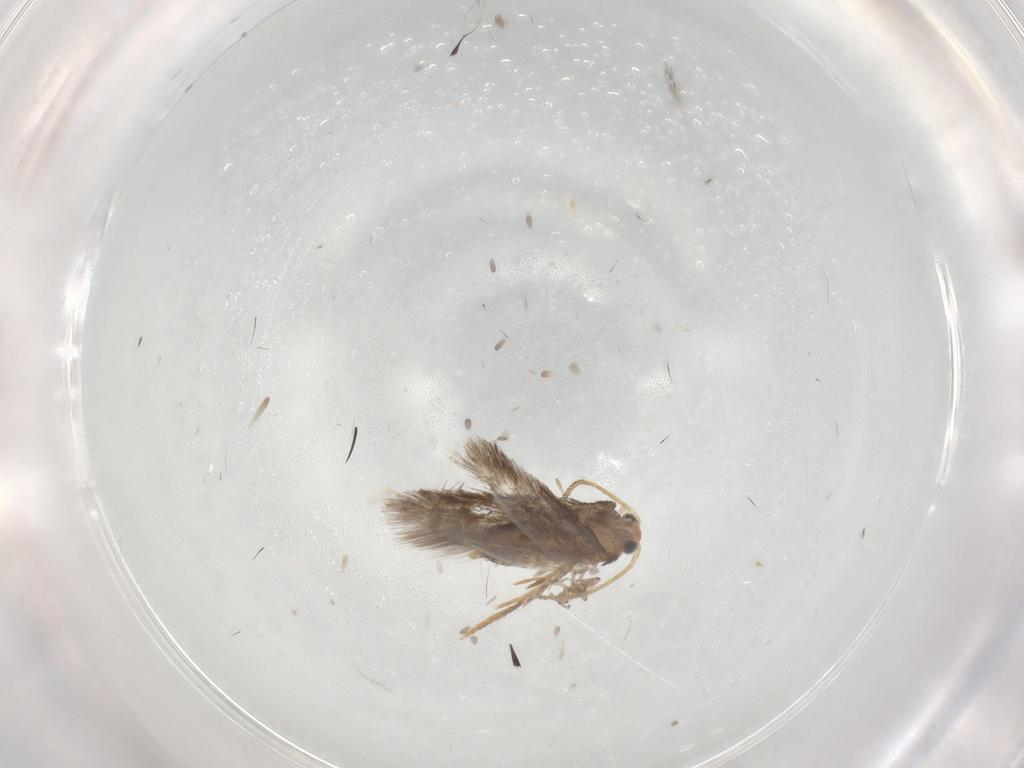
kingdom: Animalia
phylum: Arthropoda
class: Insecta
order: Lepidoptera
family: Nepticulidae
